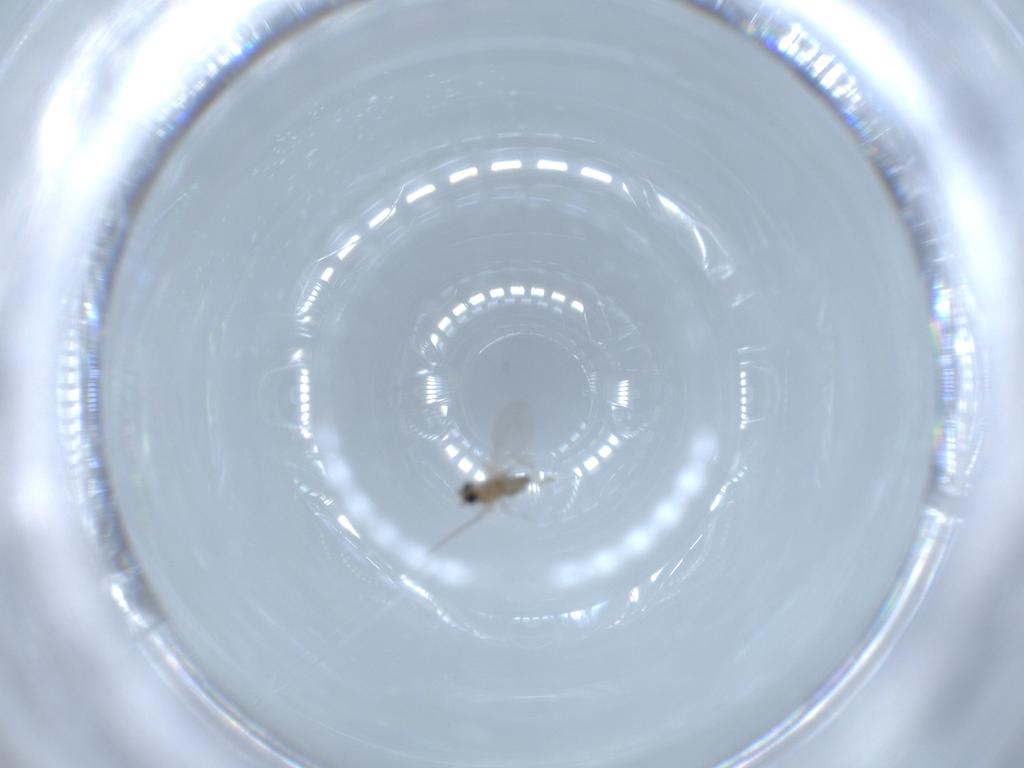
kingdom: Animalia
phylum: Arthropoda
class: Insecta
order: Diptera
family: Cecidomyiidae
